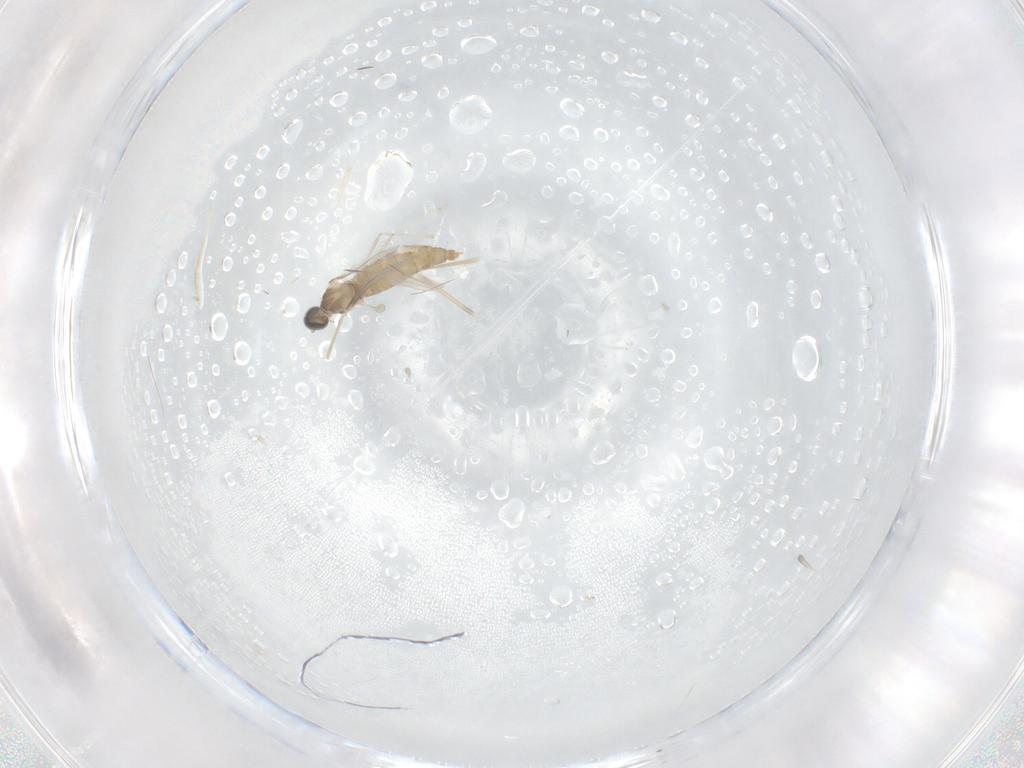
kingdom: Animalia
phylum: Arthropoda
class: Insecta
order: Diptera
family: Cecidomyiidae
